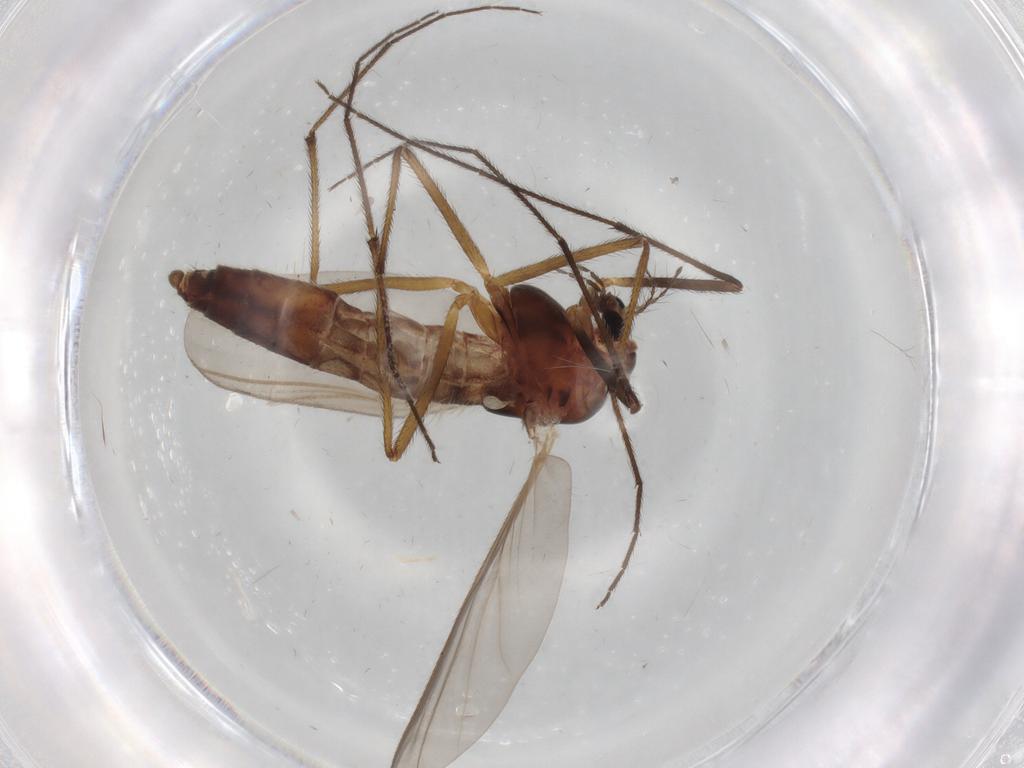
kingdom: Animalia
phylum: Arthropoda
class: Insecta
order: Diptera
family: Chironomidae
